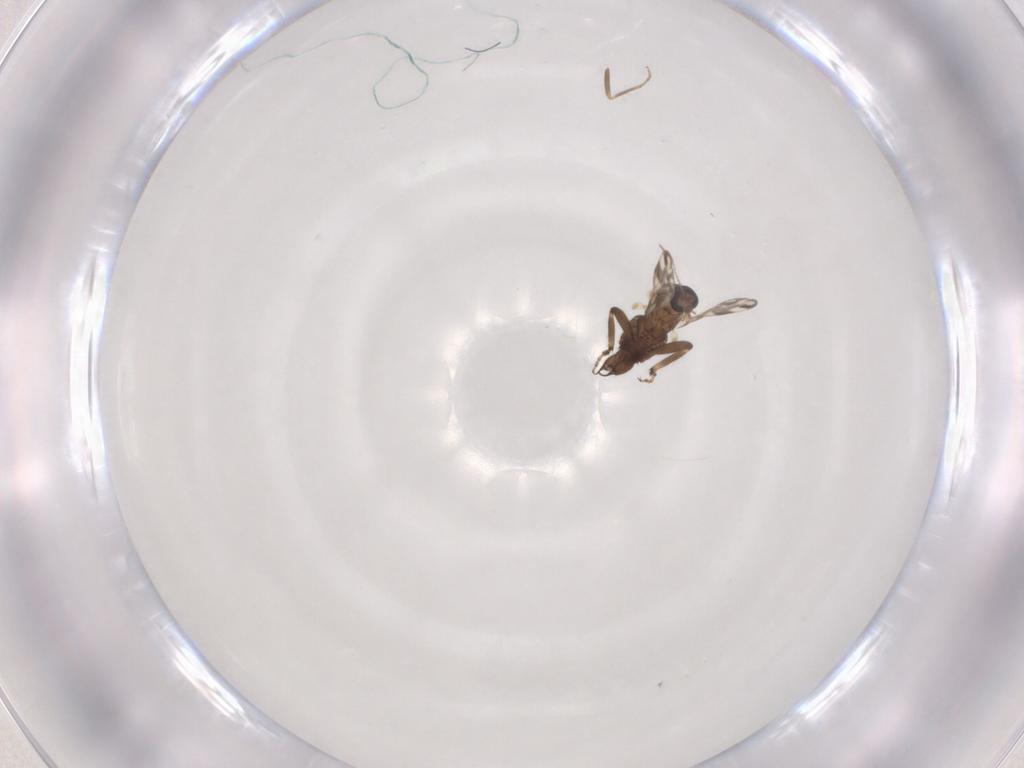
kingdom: Animalia
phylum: Arthropoda
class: Insecta
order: Diptera
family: Ceratopogonidae
